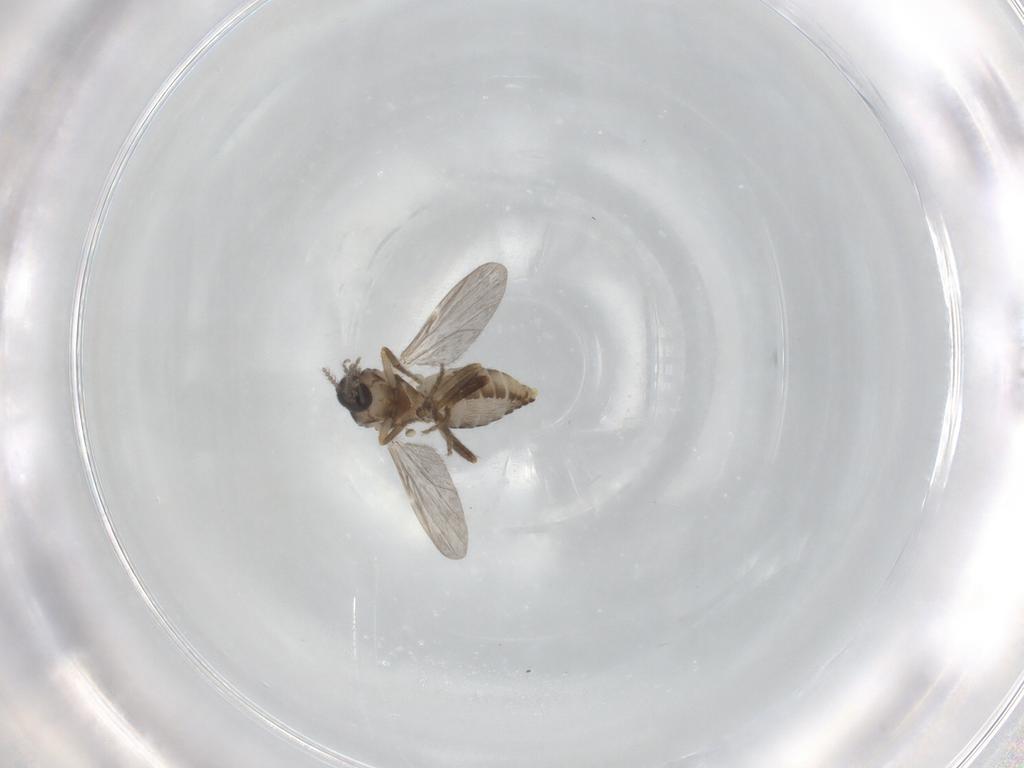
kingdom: Animalia
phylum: Arthropoda
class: Insecta
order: Diptera
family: Ceratopogonidae
